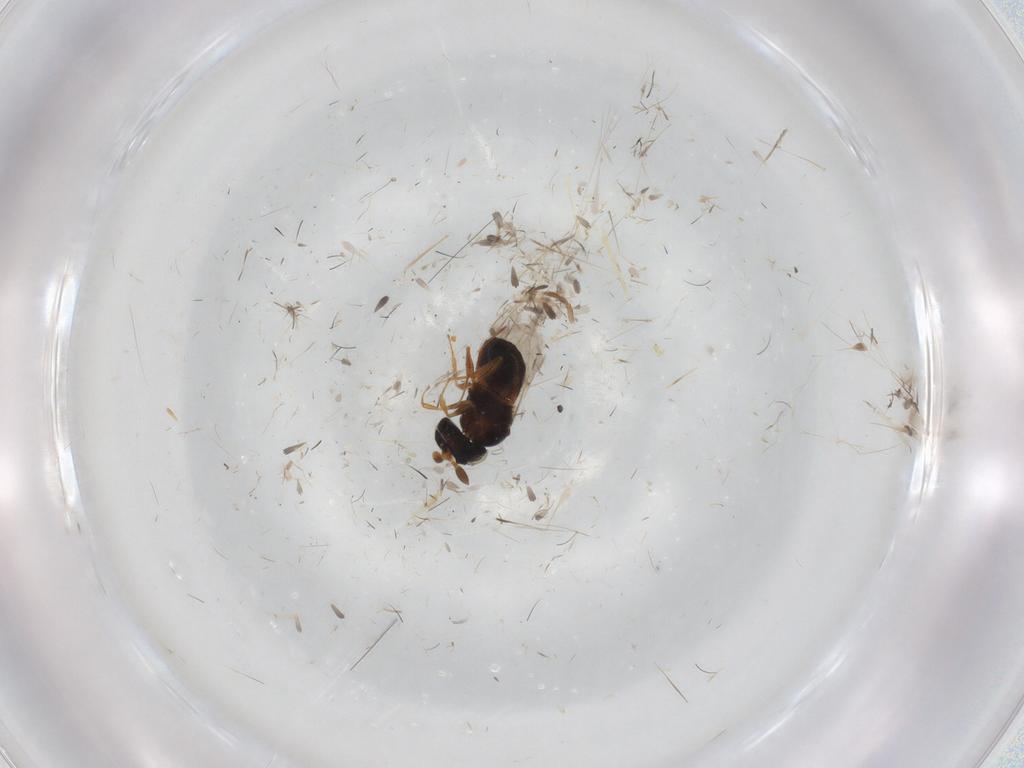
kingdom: Animalia
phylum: Arthropoda
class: Insecta
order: Hymenoptera
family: Scelionidae
